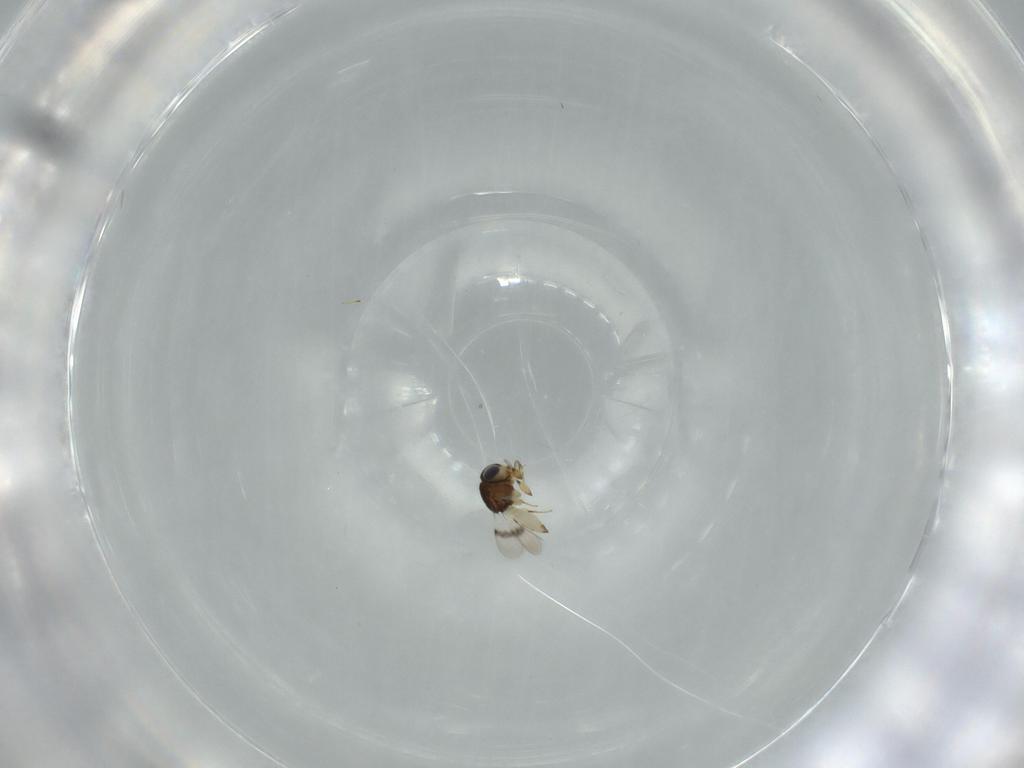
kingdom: Animalia
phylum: Arthropoda
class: Insecta
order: Hymenoptera
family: Scelionidae
